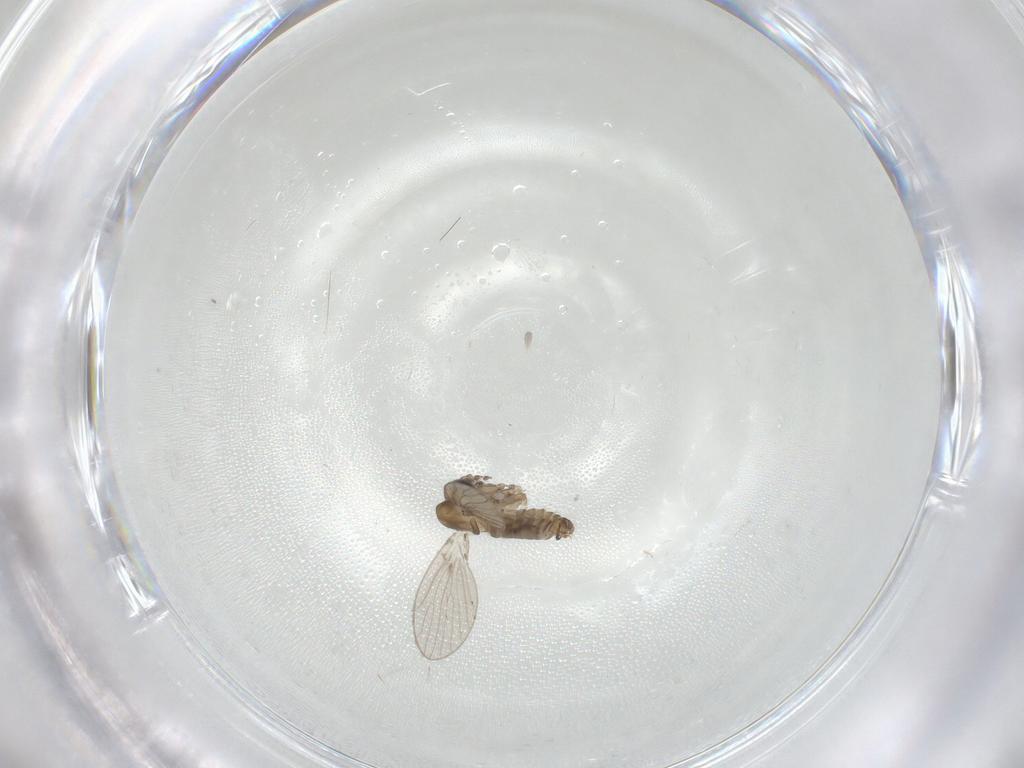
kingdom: Animalia
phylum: Arthropoda
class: Insecta
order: Diptera
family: Psychodidae
